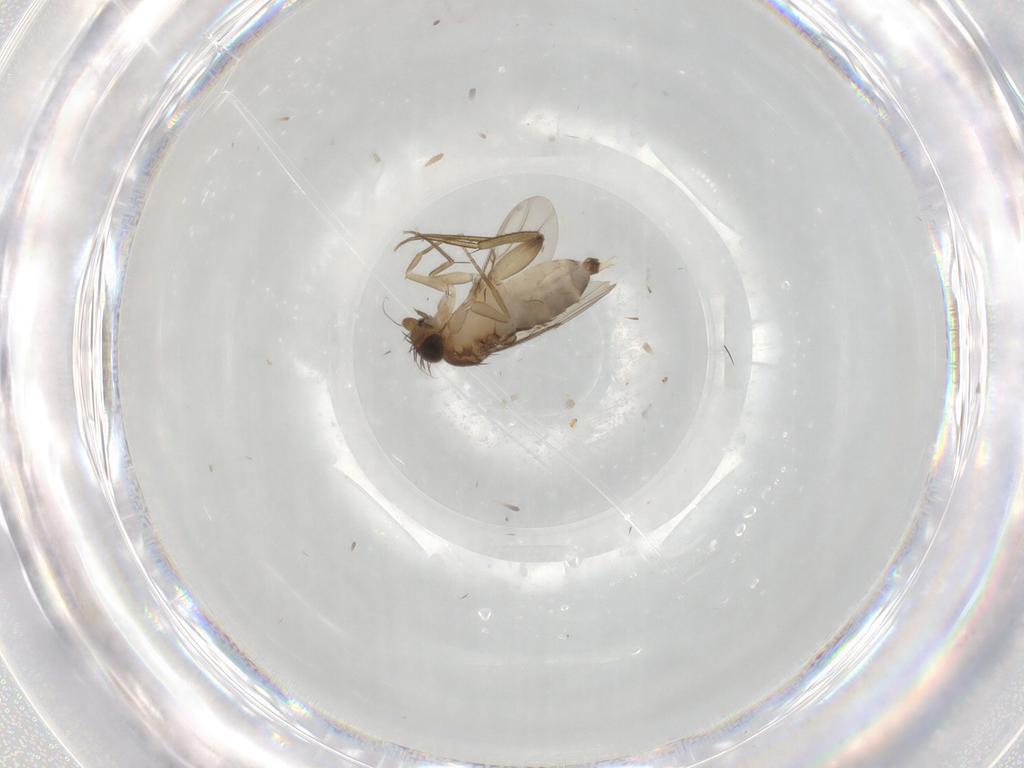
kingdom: Animalia
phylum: Arthropoda
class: Insecta
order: Diptera
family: Phoridae
